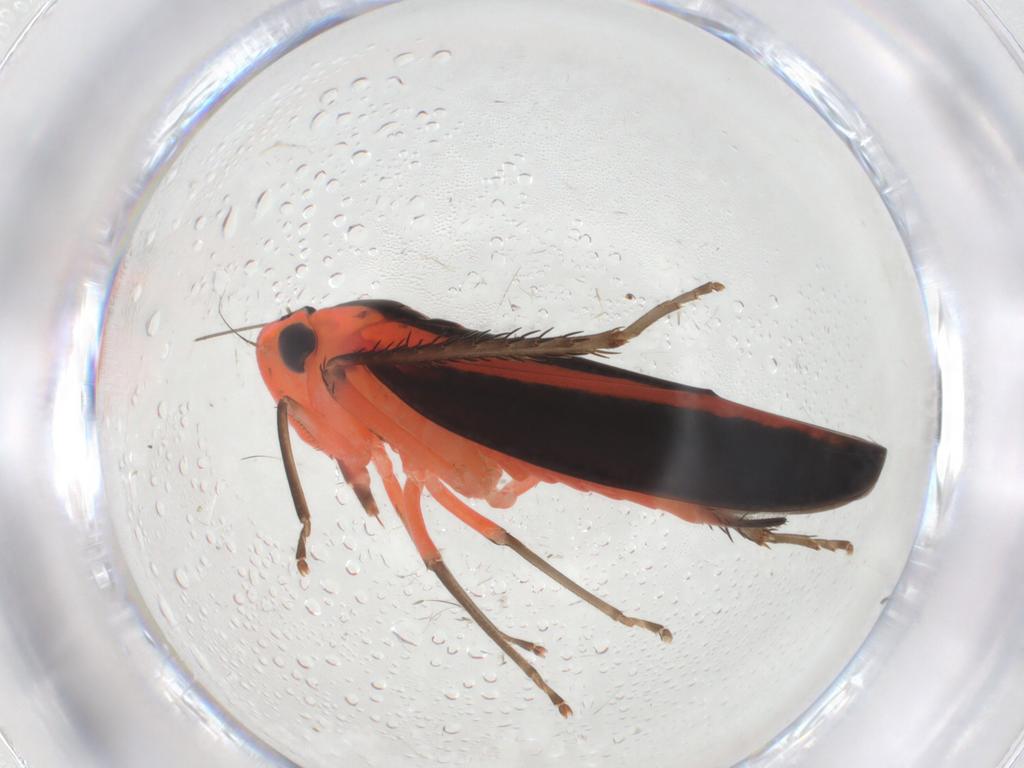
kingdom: Animalia
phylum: Arthropoda
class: Insecta
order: Hemiptera
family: Cicadellidae
